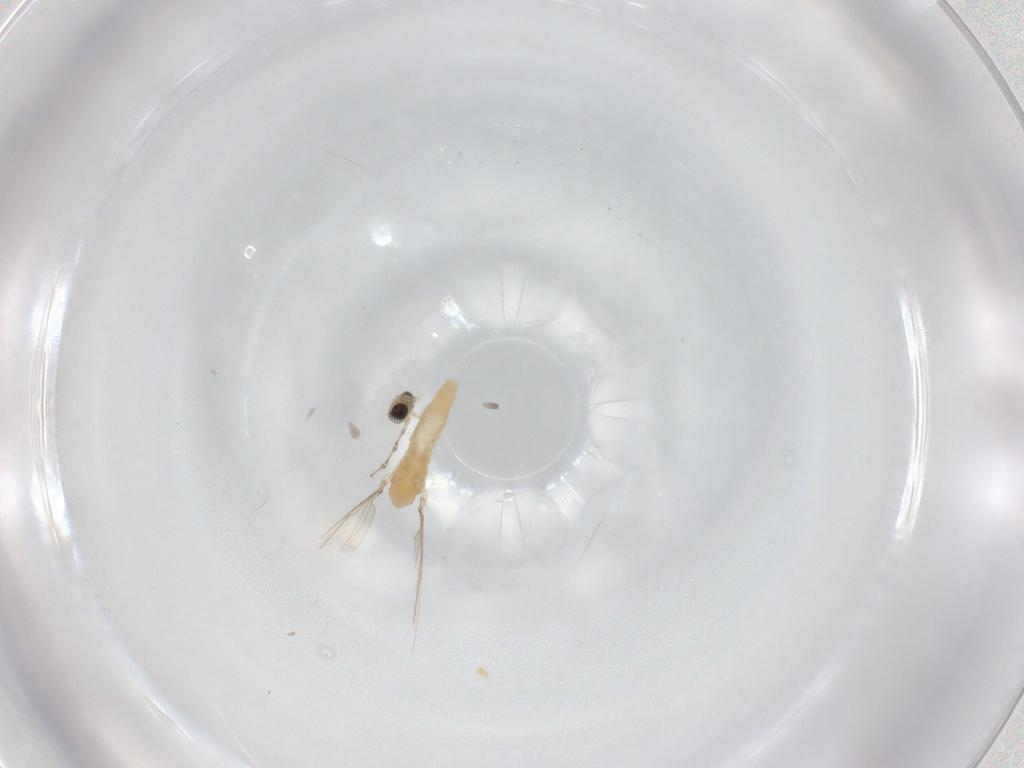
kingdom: Animalia
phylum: Arthropoda
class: Insecta
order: Diptera
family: Cecidomyiidae
